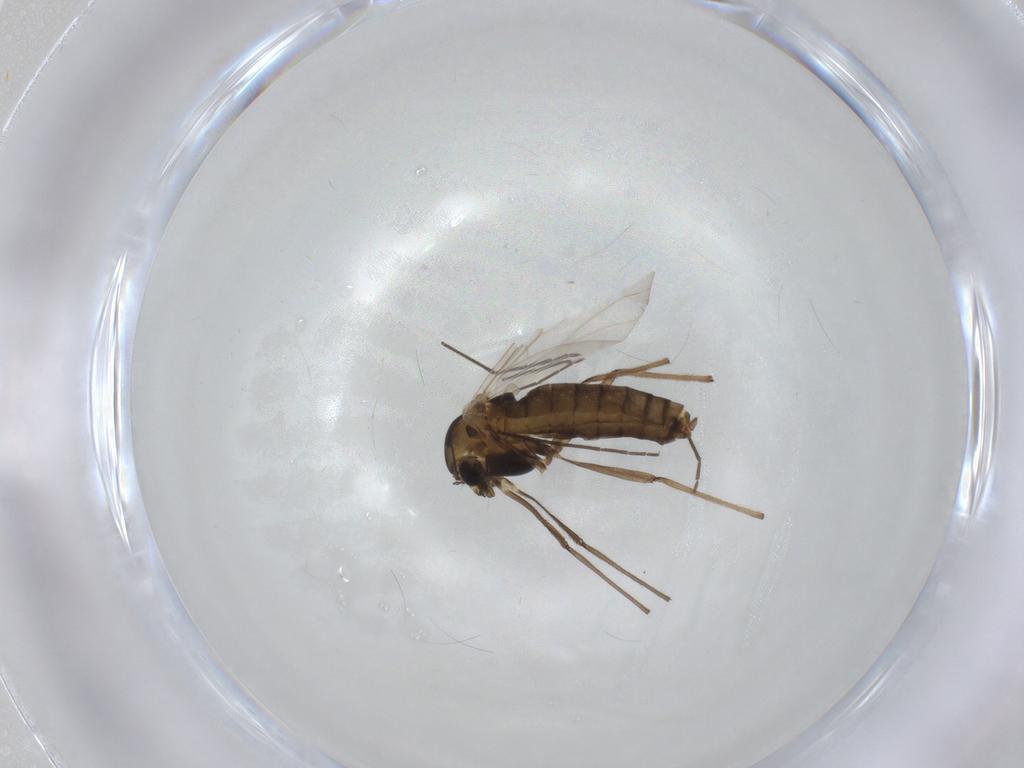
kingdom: Animalia
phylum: Arthropoda
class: Insecta
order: Diptera
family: Chironomidae
